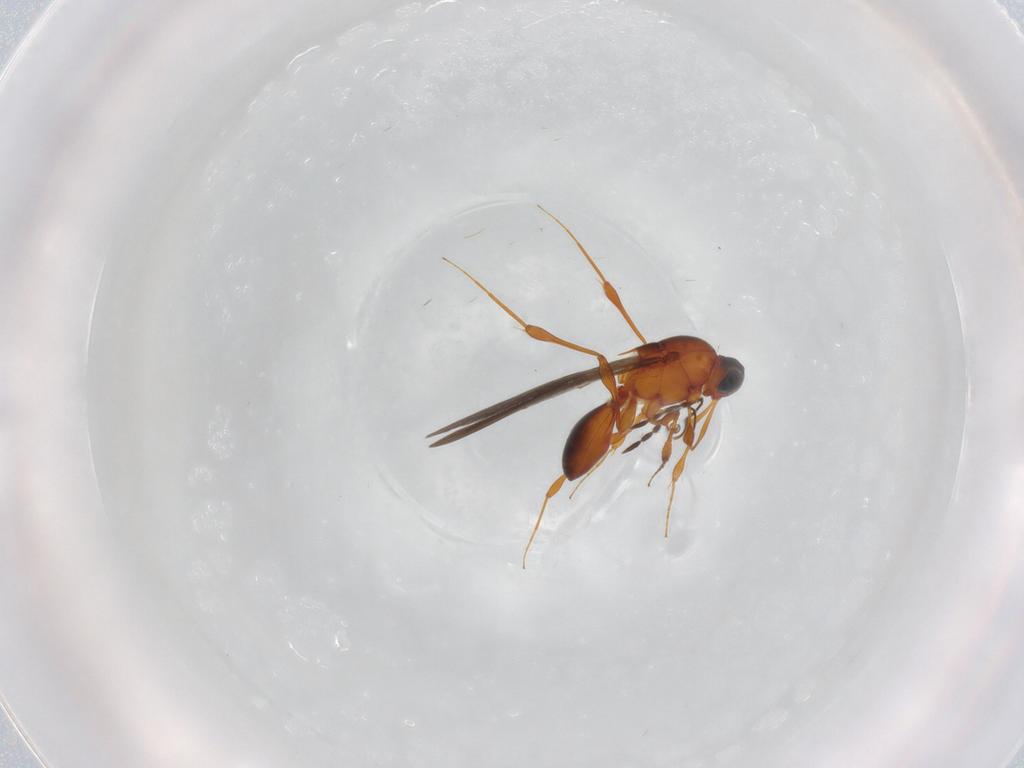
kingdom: Animalia
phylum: Arthropoda
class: Insecta
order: Hymenoptera
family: Platygastridae
